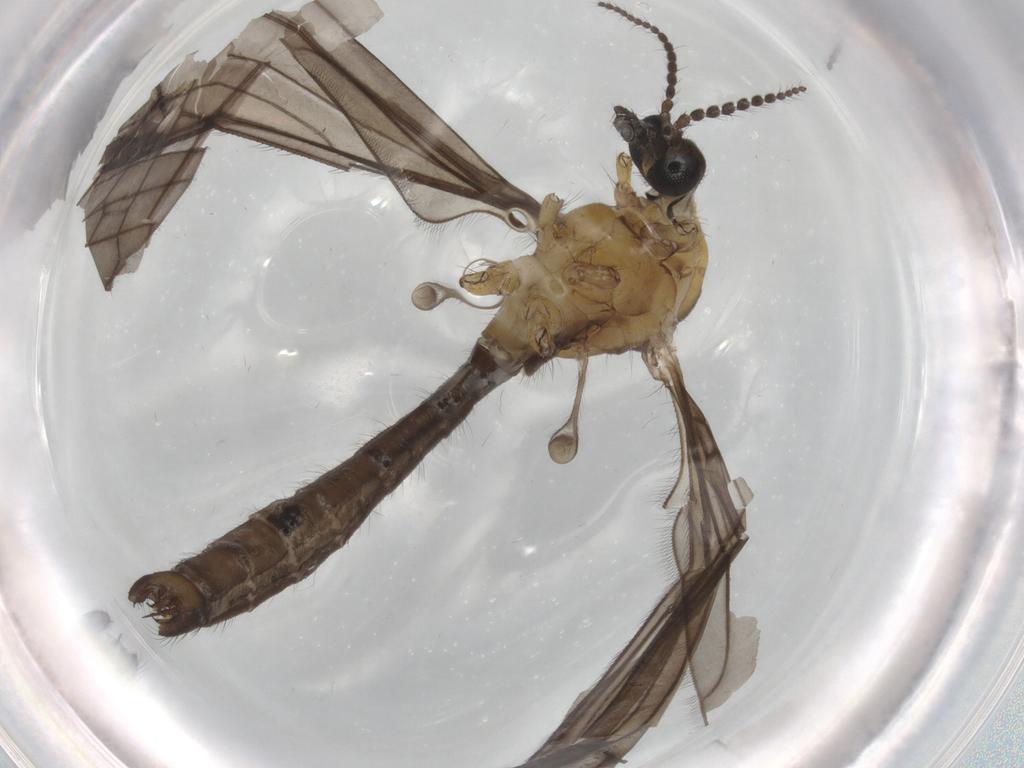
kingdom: Animalia
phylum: Arthropoda
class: Insecta
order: Diptera
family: Limoniidae
